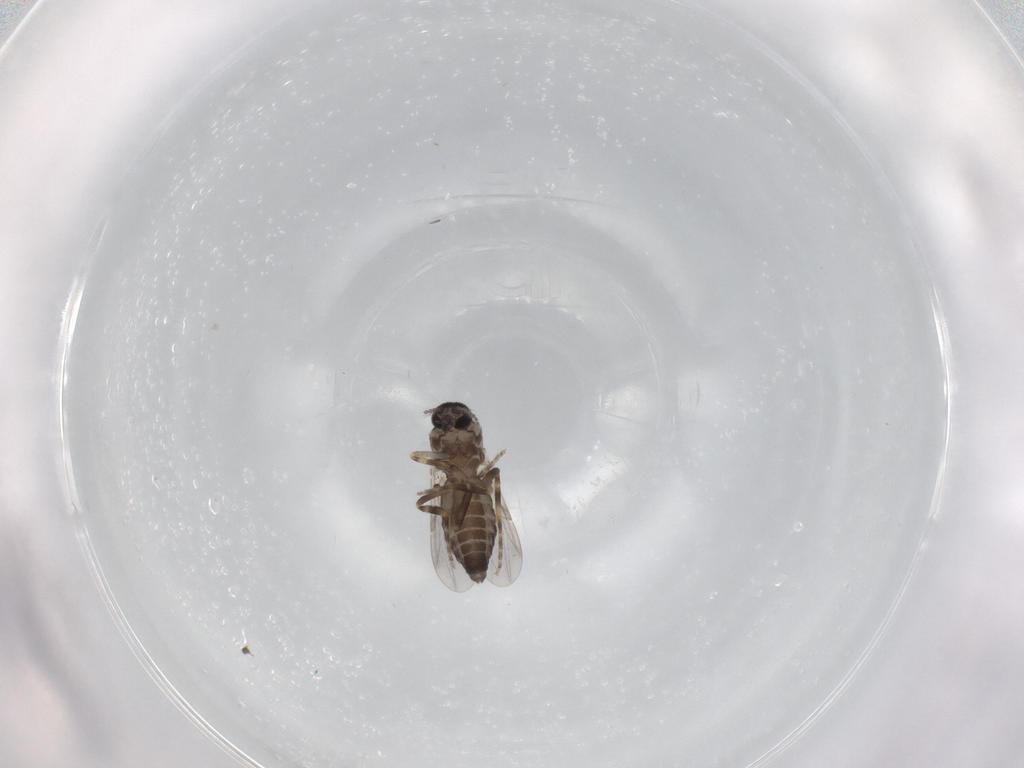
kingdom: Animalia
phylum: Arthropoda
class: Insecta
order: Diptera
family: Ceratopogonidae
